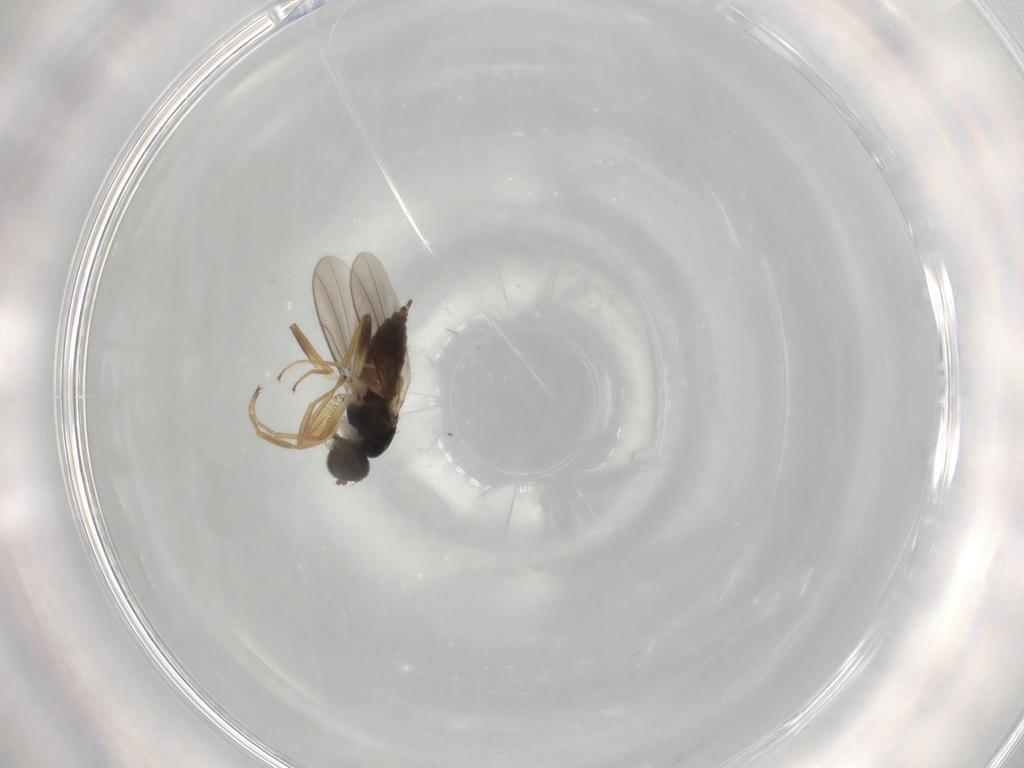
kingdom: Animalia
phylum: Arthropoda
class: Insecta
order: Diptera
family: Hybotidae
